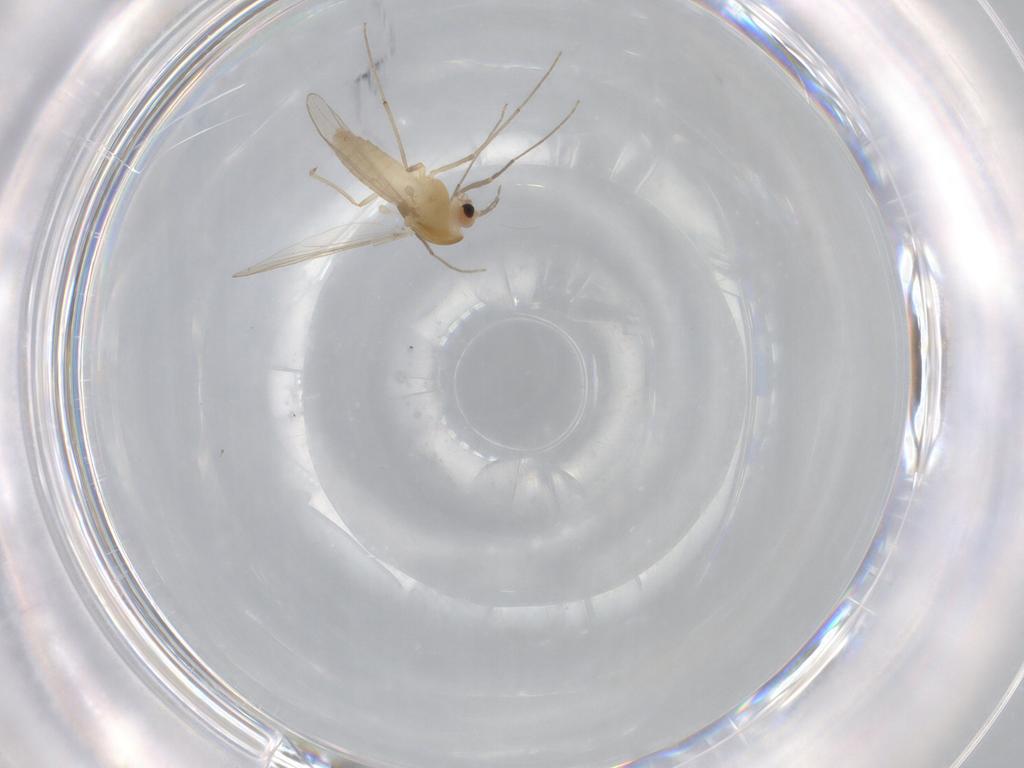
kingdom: Animalia
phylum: Arthropoda
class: Insecta
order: Diptera
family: Chironomidae
